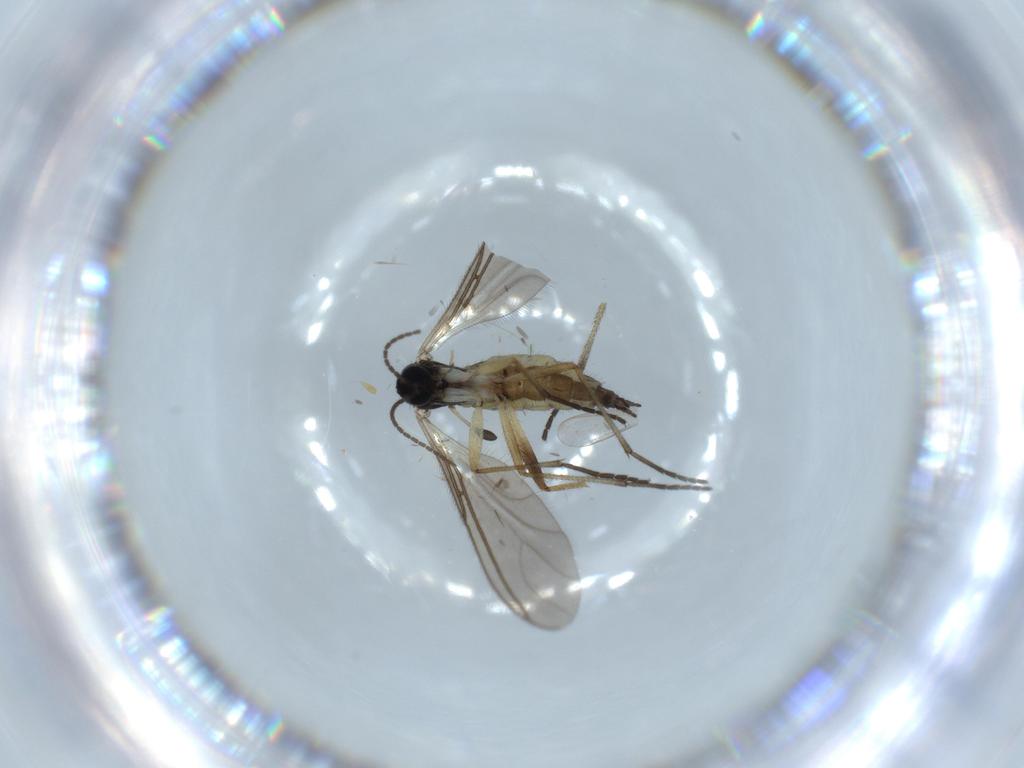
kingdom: Animalia
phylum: Arthropoda
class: Insecta
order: Diptera
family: Sciaridae
